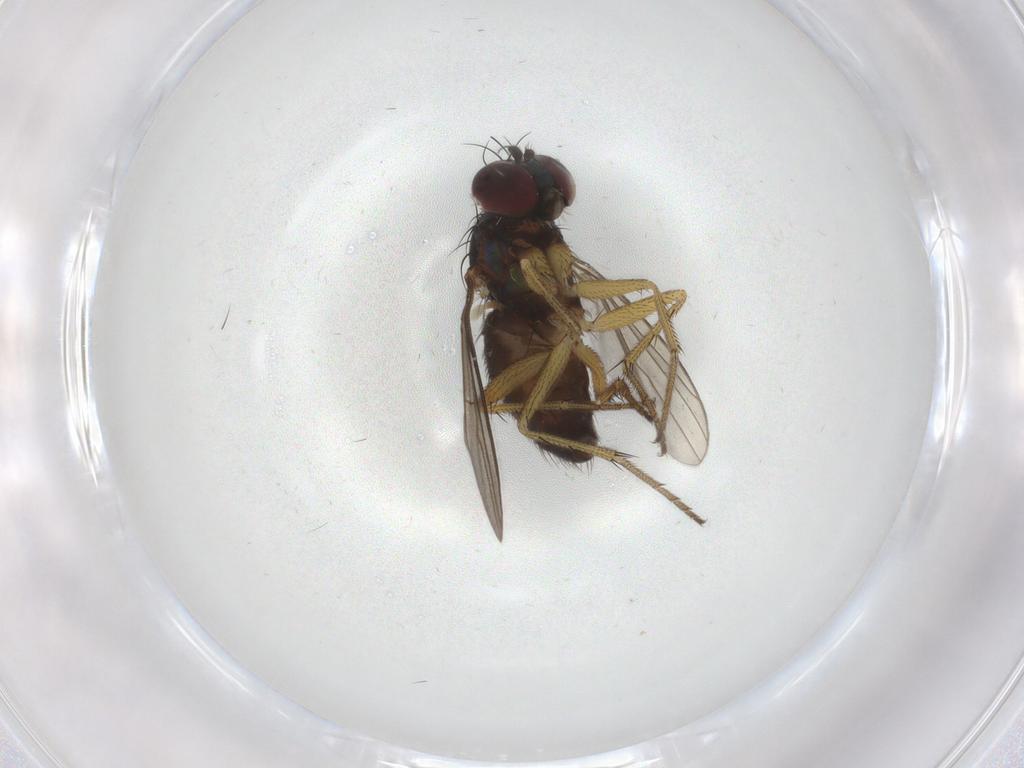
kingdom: Animalia
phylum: Arthropoda
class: Insecta
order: Diptera
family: Dolichopodidae
